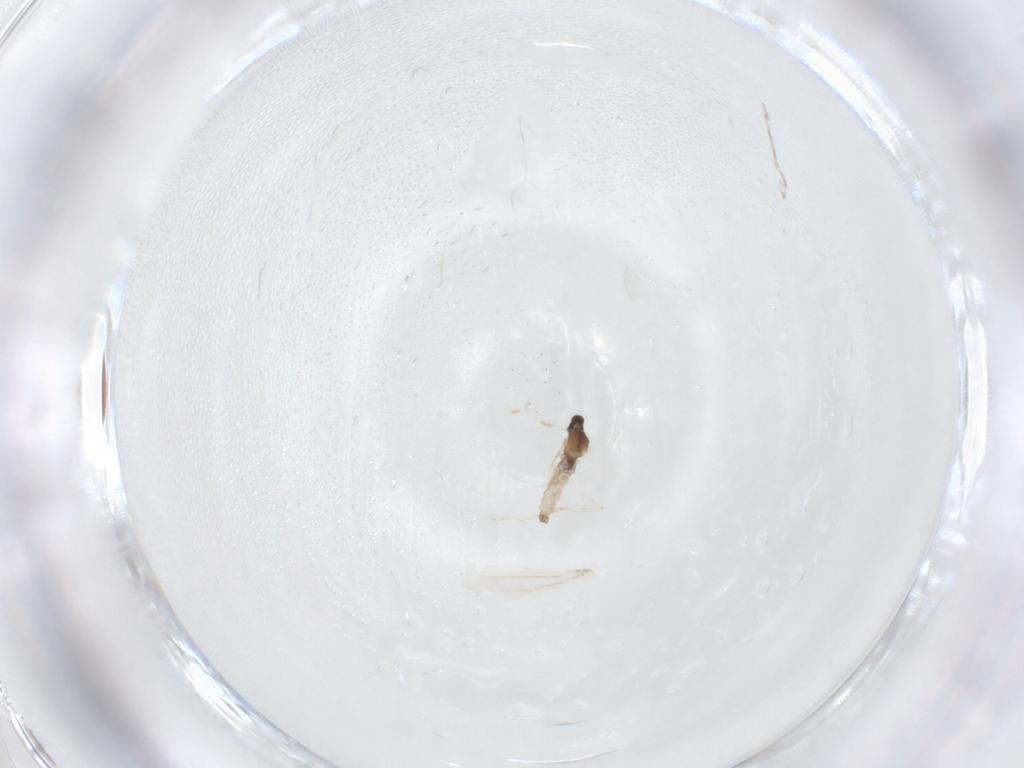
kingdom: Animalia
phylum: Arthropoda
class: Insecta
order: Diptera
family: Cecidomyiidae
